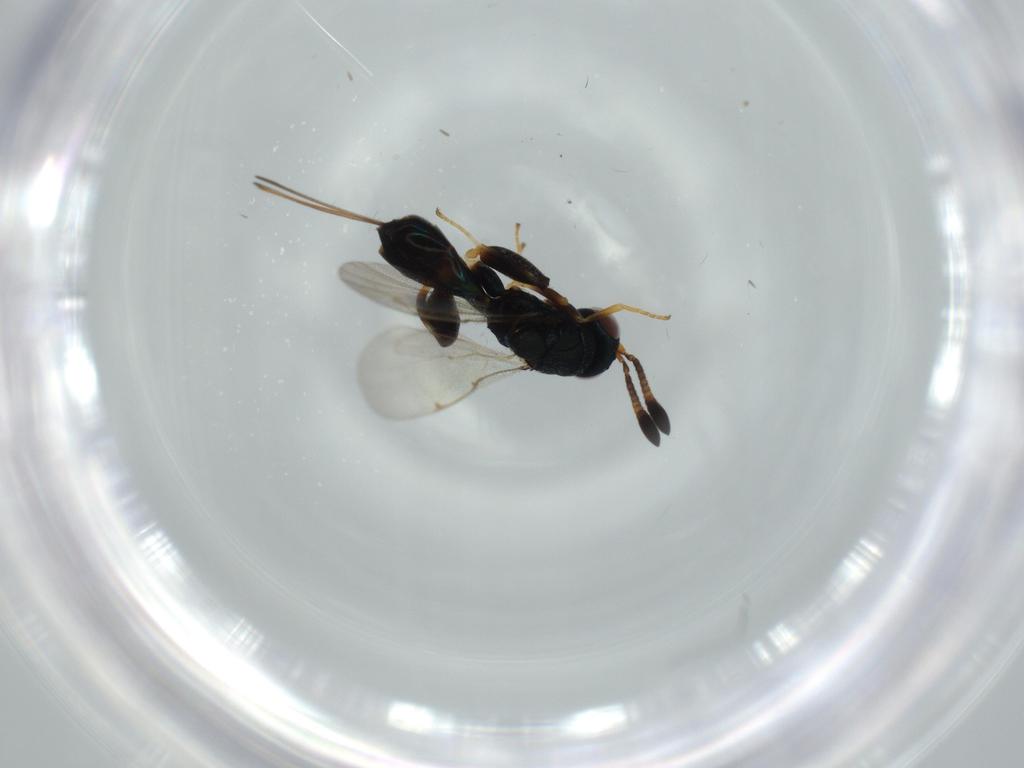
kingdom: Animalia
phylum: Arthropoda
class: Insecta
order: Hymenoptera
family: Torymidae
